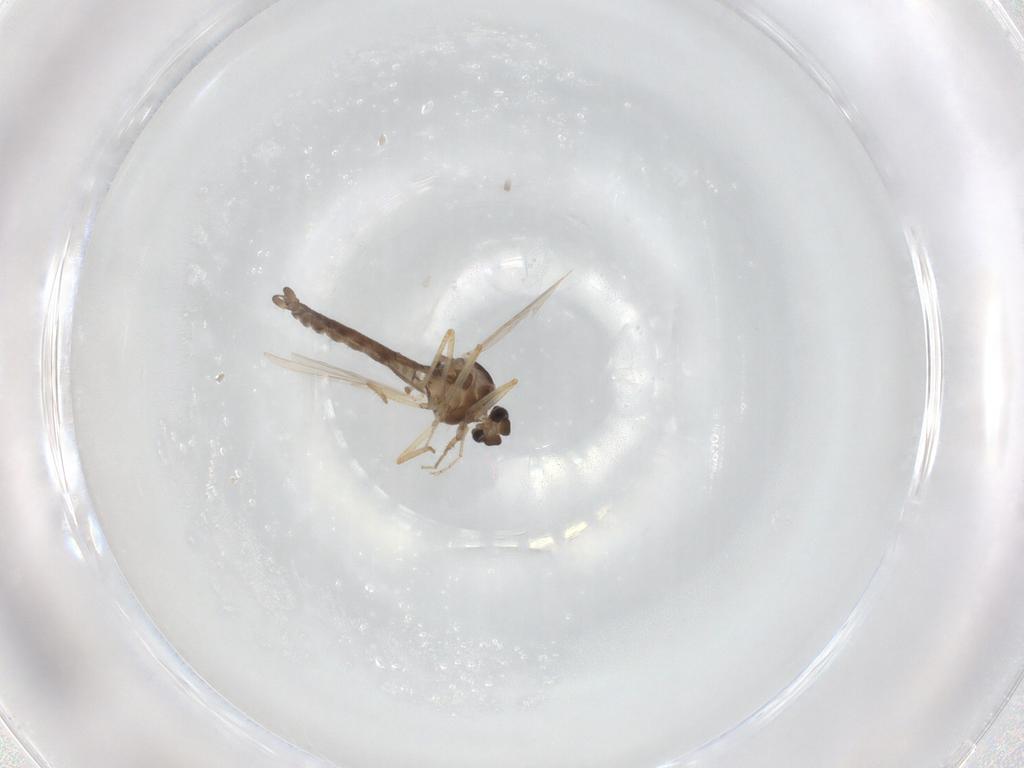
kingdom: Animalia
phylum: Arthropoda
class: Insecta
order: Diptera
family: Ceratopogonidae
